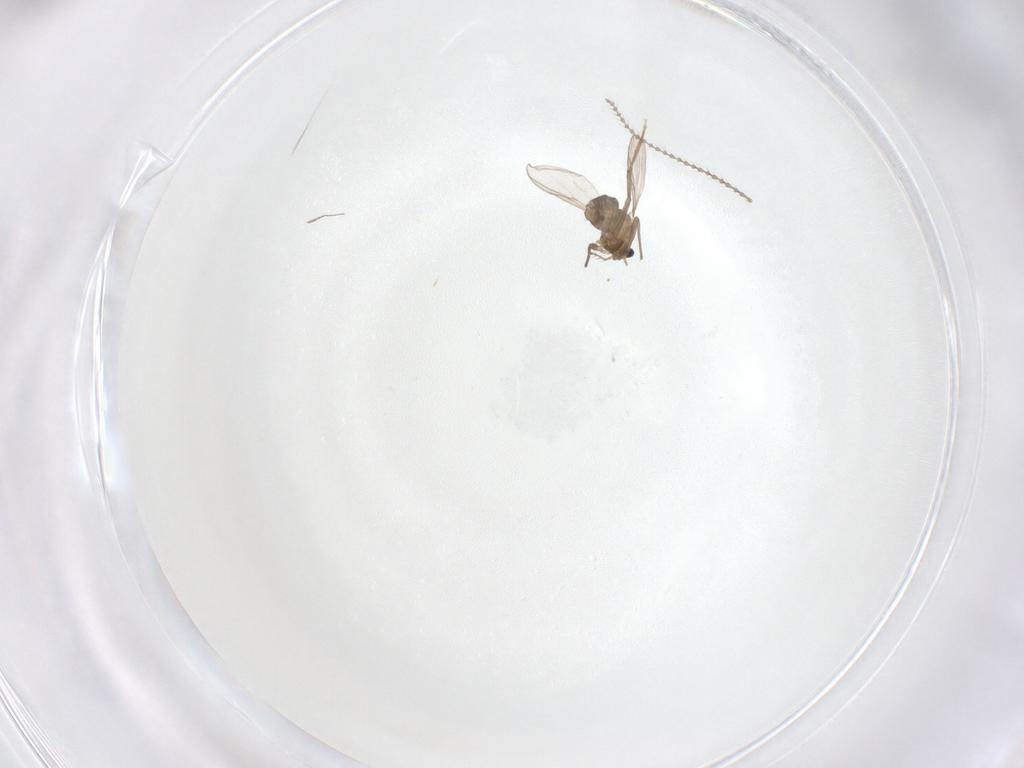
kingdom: Animalia
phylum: Arthropoda
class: Insecta
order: Diptera
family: Chironomidae
